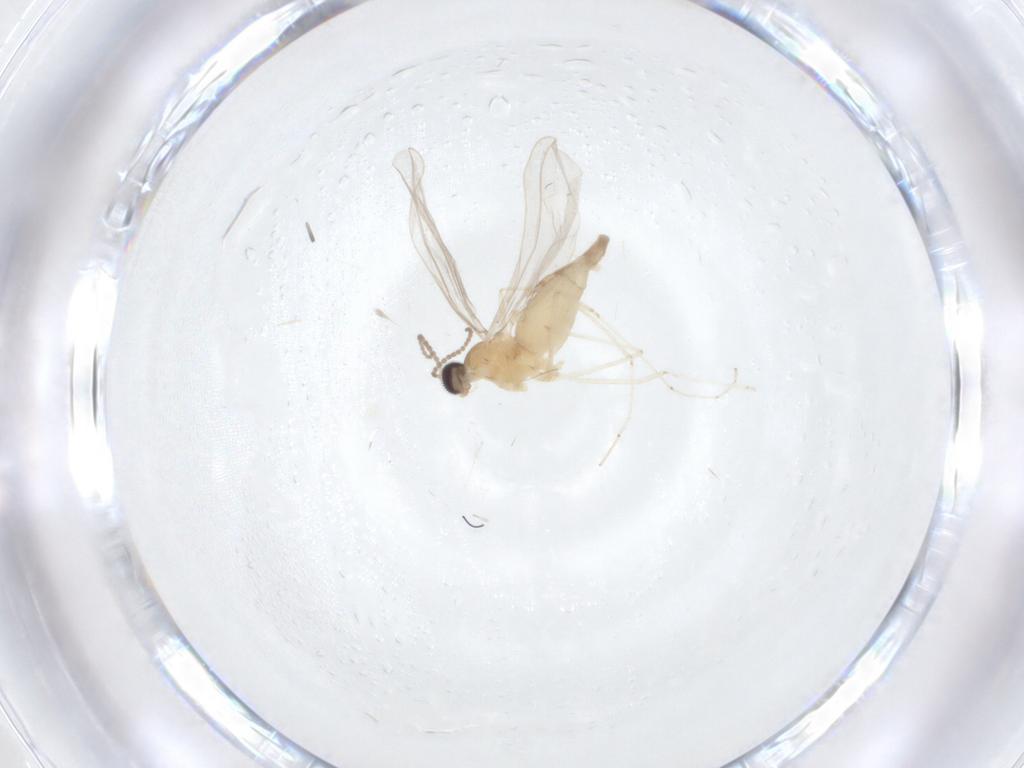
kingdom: Animalia
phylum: Arthropoda
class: Insecta
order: Diptera
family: Cecidomyiidae
